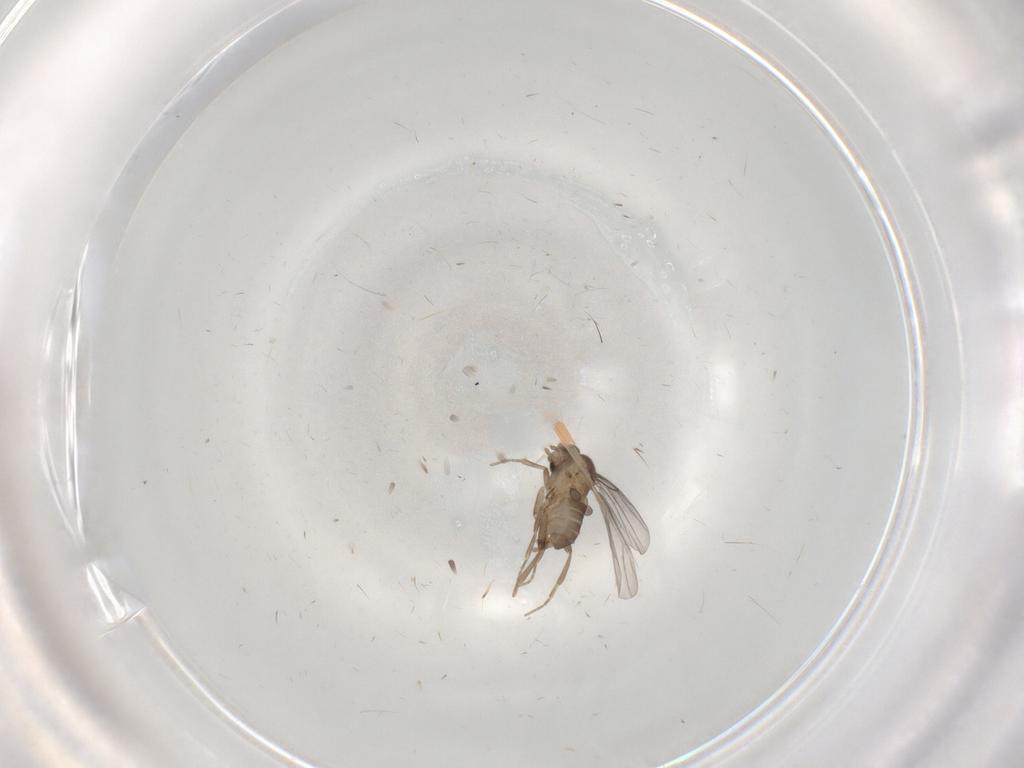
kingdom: Animalia
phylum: Arthropoda
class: Insecta
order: Diptera
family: Psychodidae
